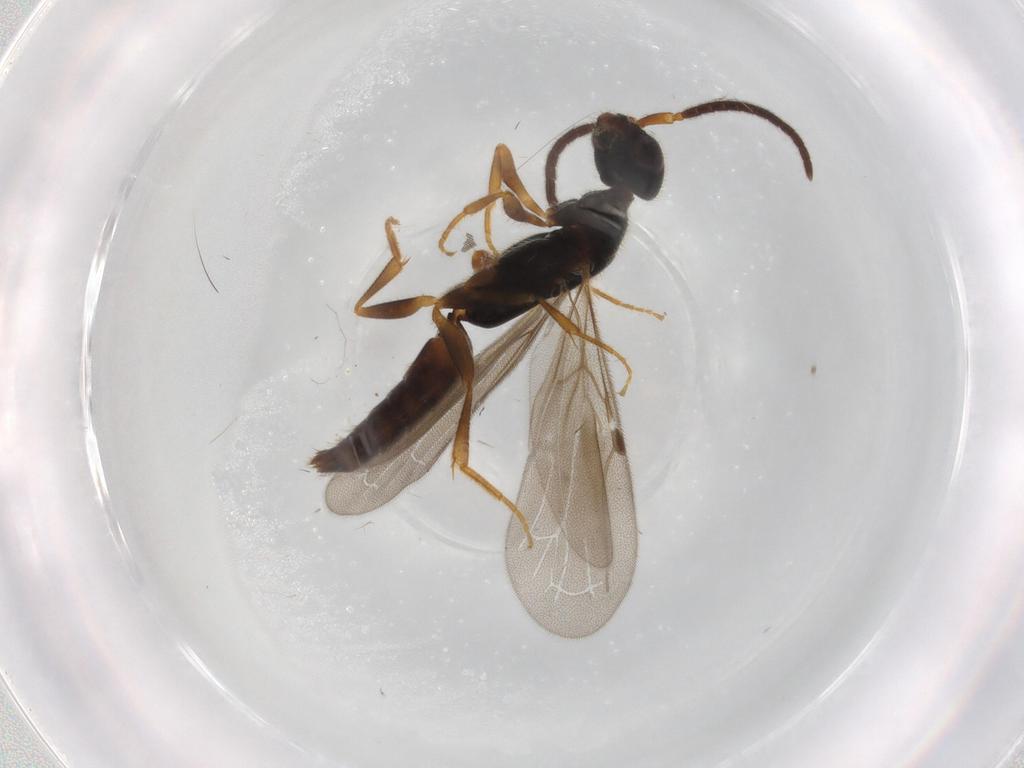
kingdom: Animalia
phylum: Arthropoda
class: Insecta
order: Hymenoptera
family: Bethylidae
